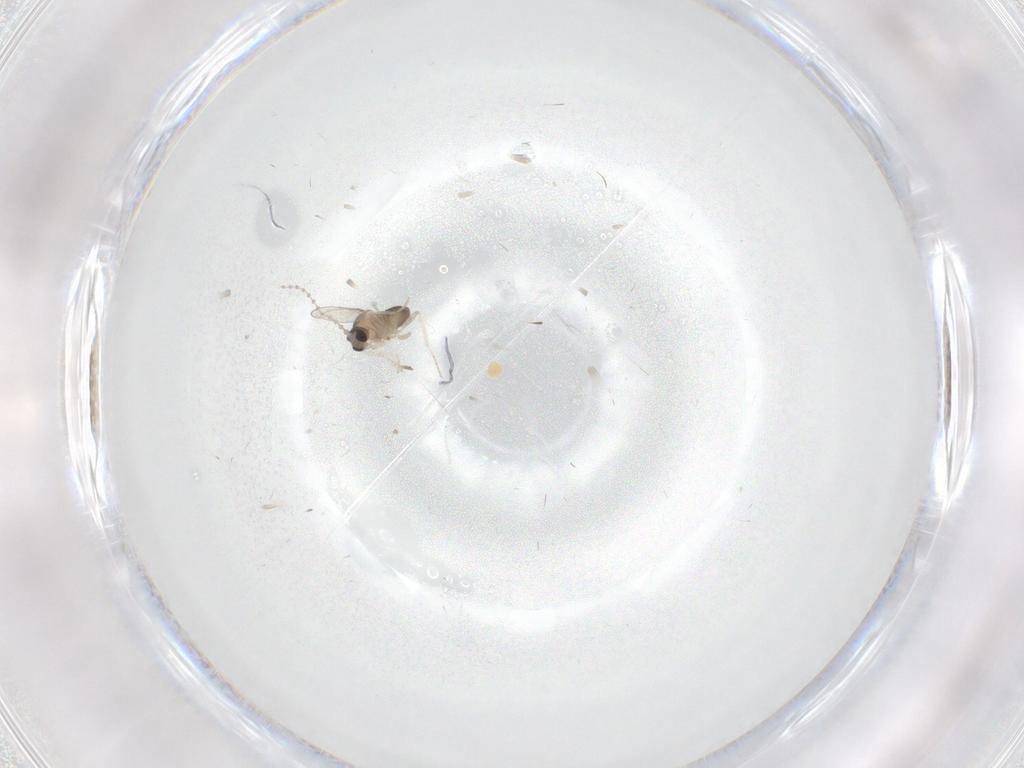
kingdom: Animalia
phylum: Arthropoda
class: Insecta
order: Diptera
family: Phoridae
